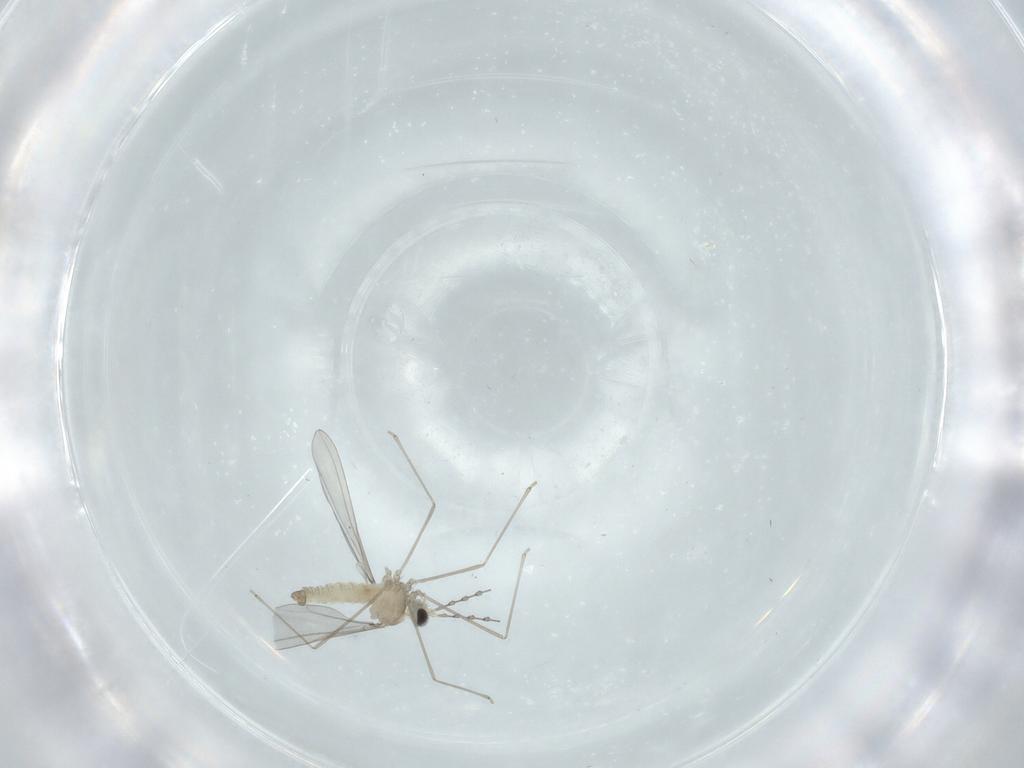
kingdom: Animalia
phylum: Arthropoda
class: Insecta
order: Diptera
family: Cecidomyiidae
